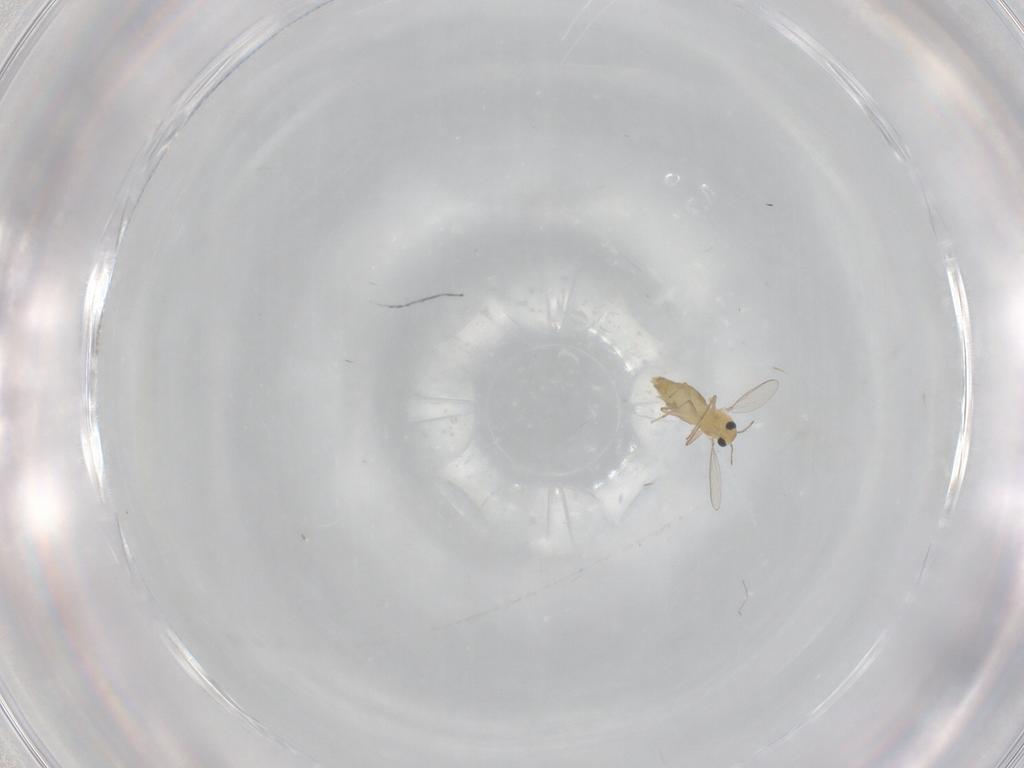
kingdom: Animalia
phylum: Arthropoda
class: Insecta
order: Diptera
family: Chironomidae
